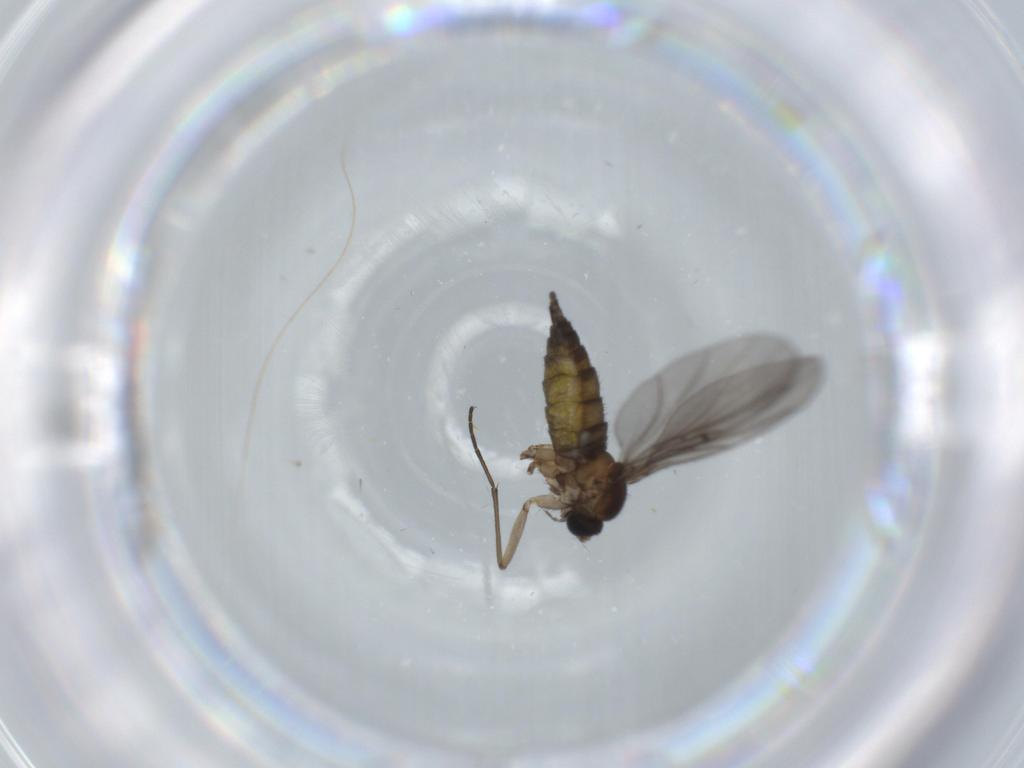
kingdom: Animalia
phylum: Arthropoda
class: Insecta
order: Diptera
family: Sciaridae
